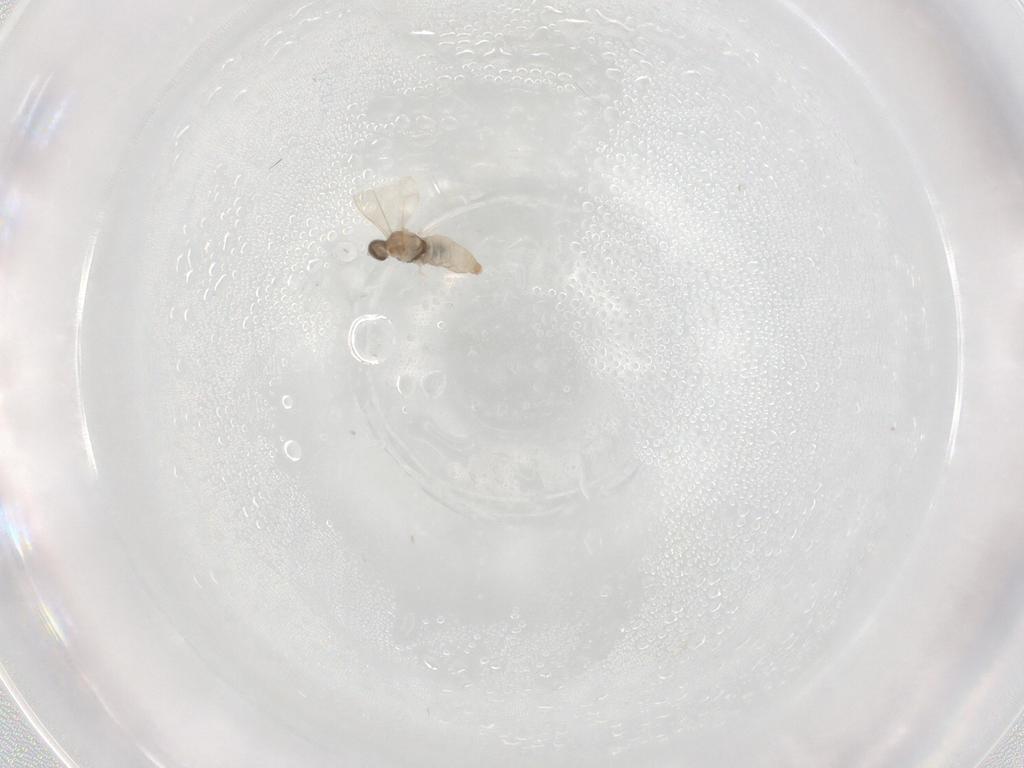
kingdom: Animalia
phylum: Arthropoda
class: Insecta
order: Diptera
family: Cecidomyiidae
